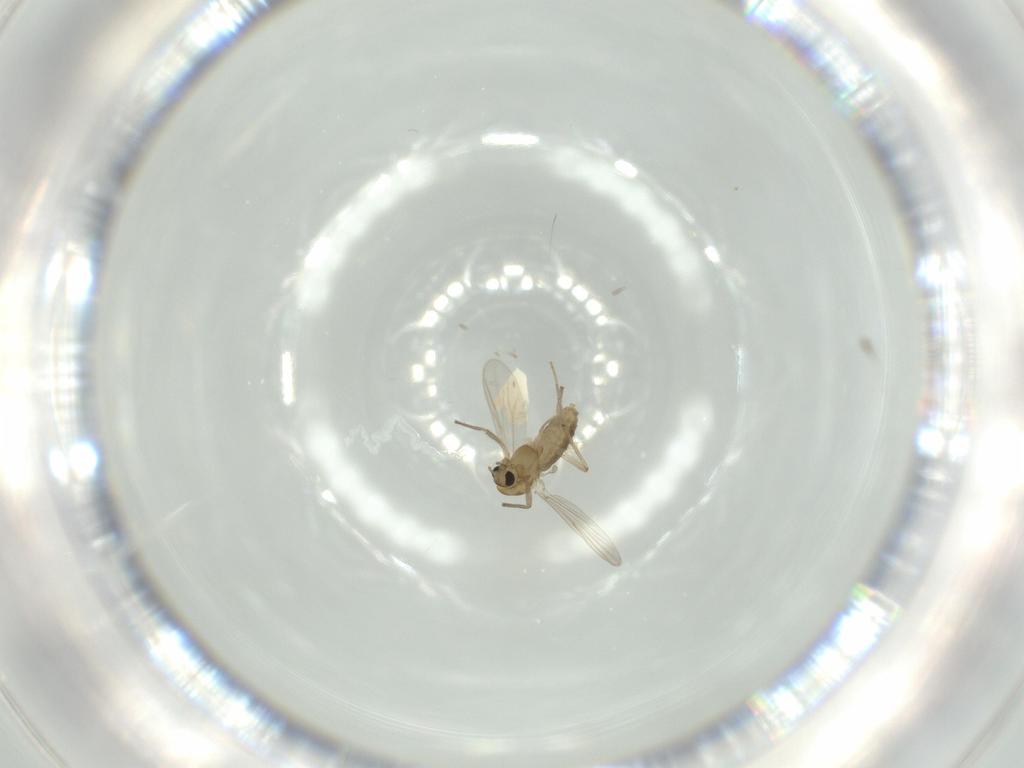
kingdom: Animalia
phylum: Arthropoda
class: Insecta
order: Diptera
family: Chironomidae
